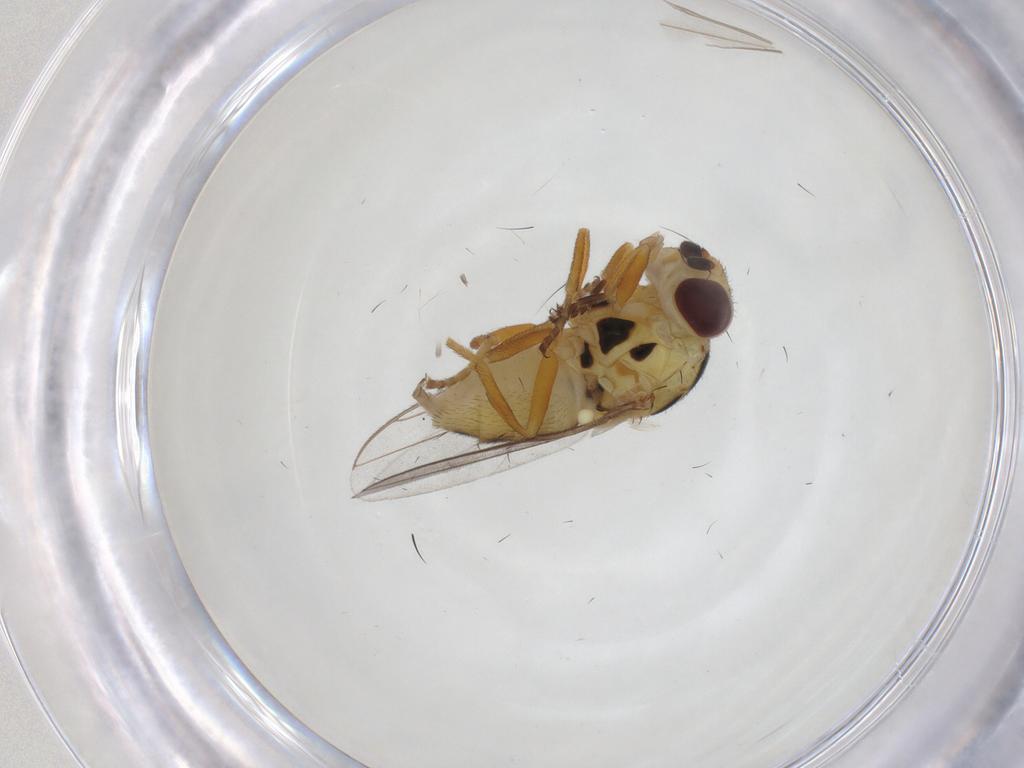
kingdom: Animalia
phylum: Arthropoda
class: Insecta
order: Diptera
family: Chloropidae
